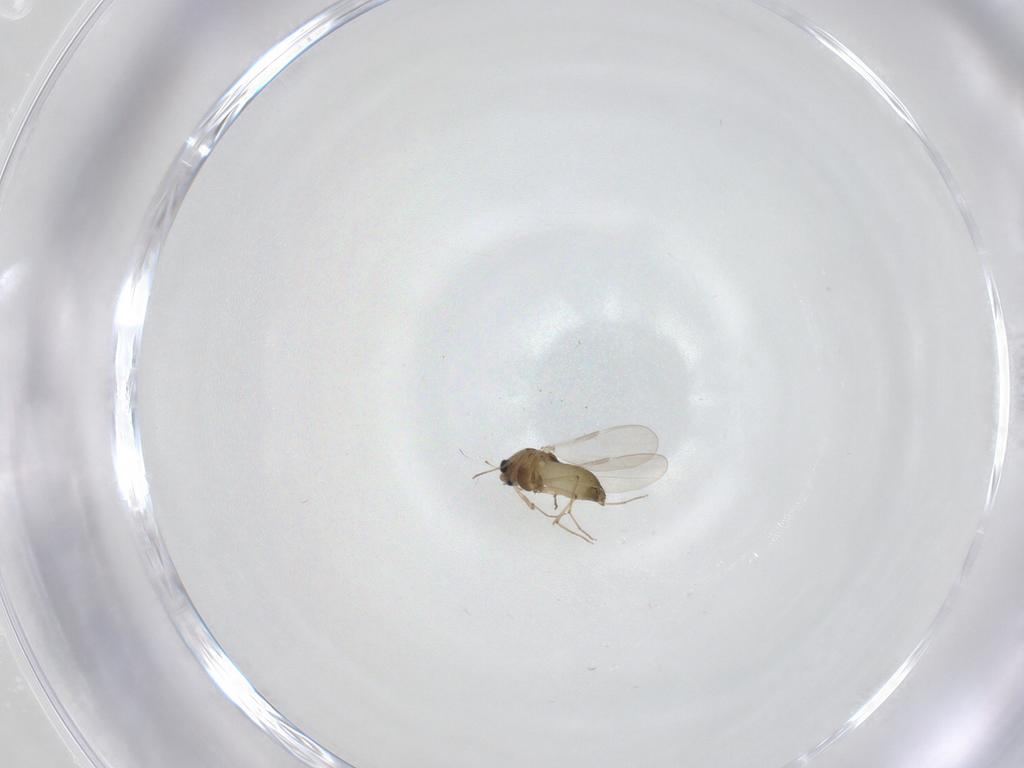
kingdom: Animalia
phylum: Arthropoda
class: Insecta
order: Diptera
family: Chironomidae
